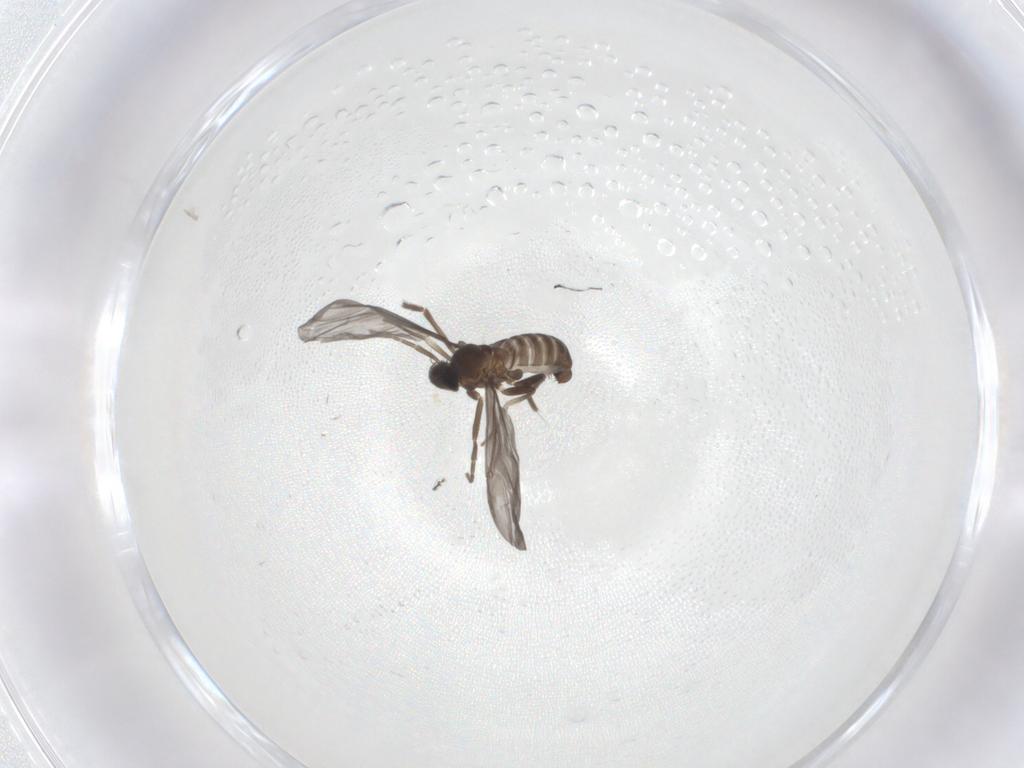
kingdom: Animalia
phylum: Arthropoda
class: Insecta
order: Diptera
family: Phoridae
